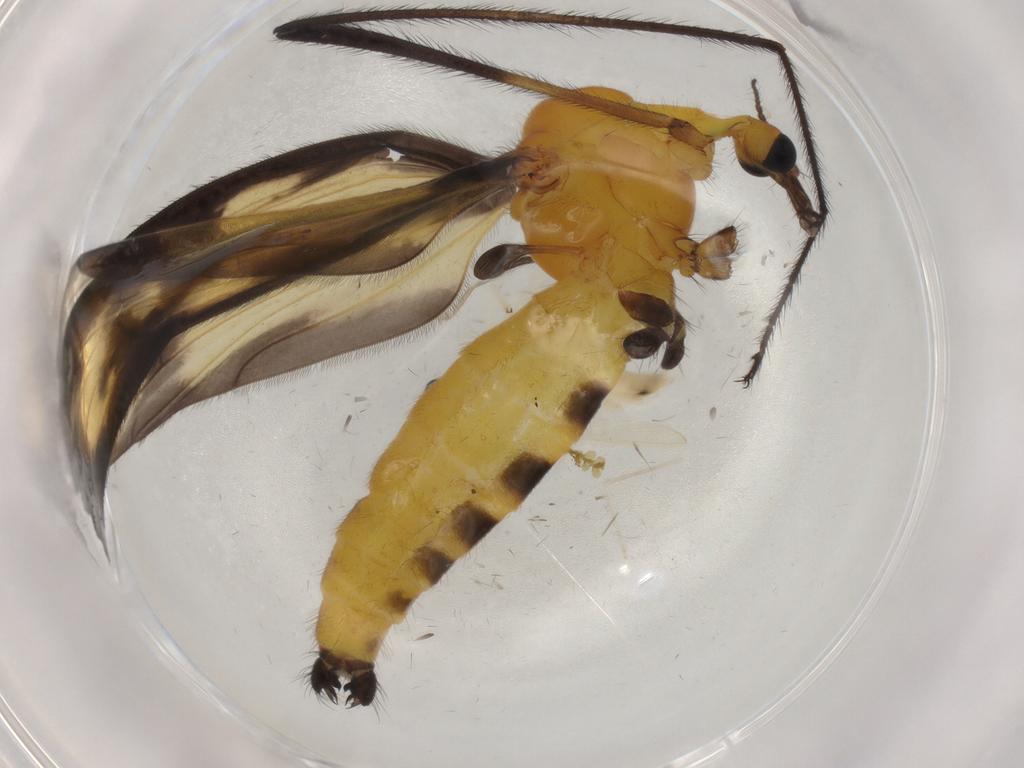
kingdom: Animalia
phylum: Arthropoda
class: Insecta
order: Diptera
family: Limoniidae
